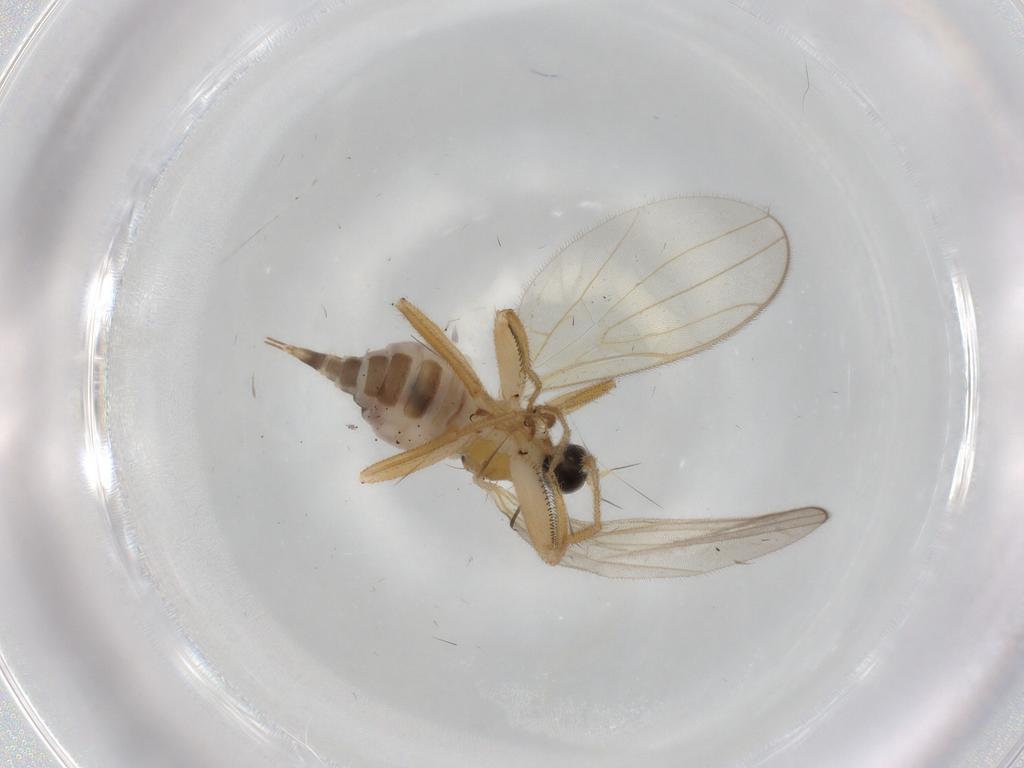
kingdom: Animalia
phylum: Arthropoda
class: Insecta
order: Diptera
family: Hybotidae
